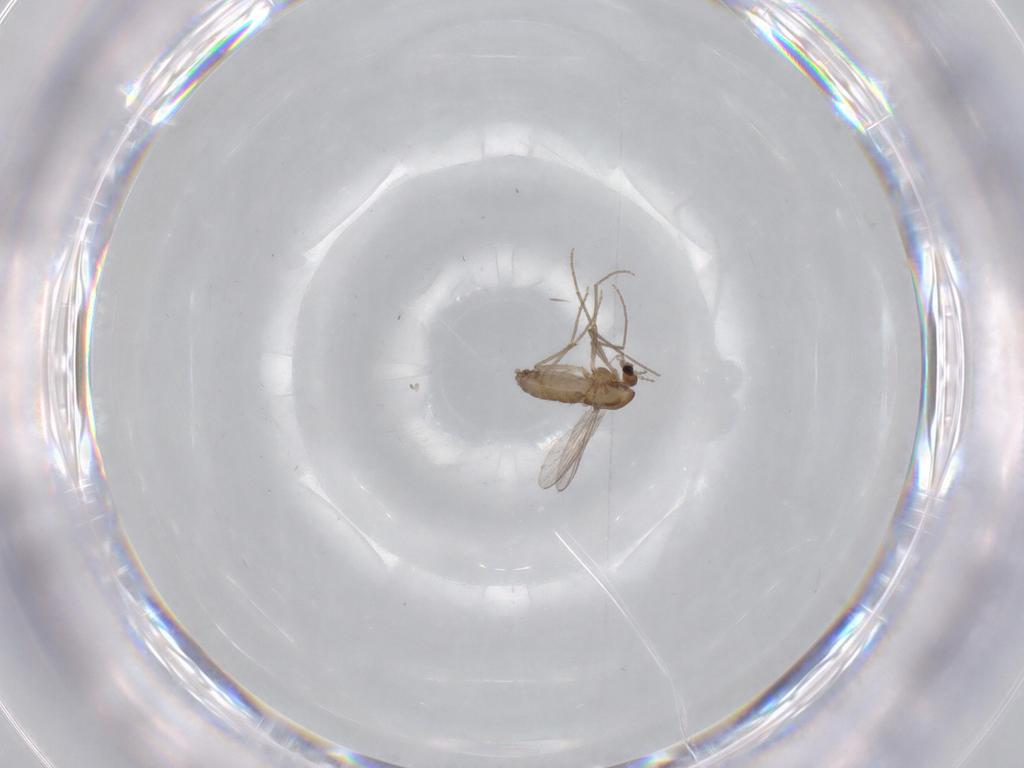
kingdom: Animalia
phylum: Arthropoda
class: Insecta
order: Diptera
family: Chironomidae
